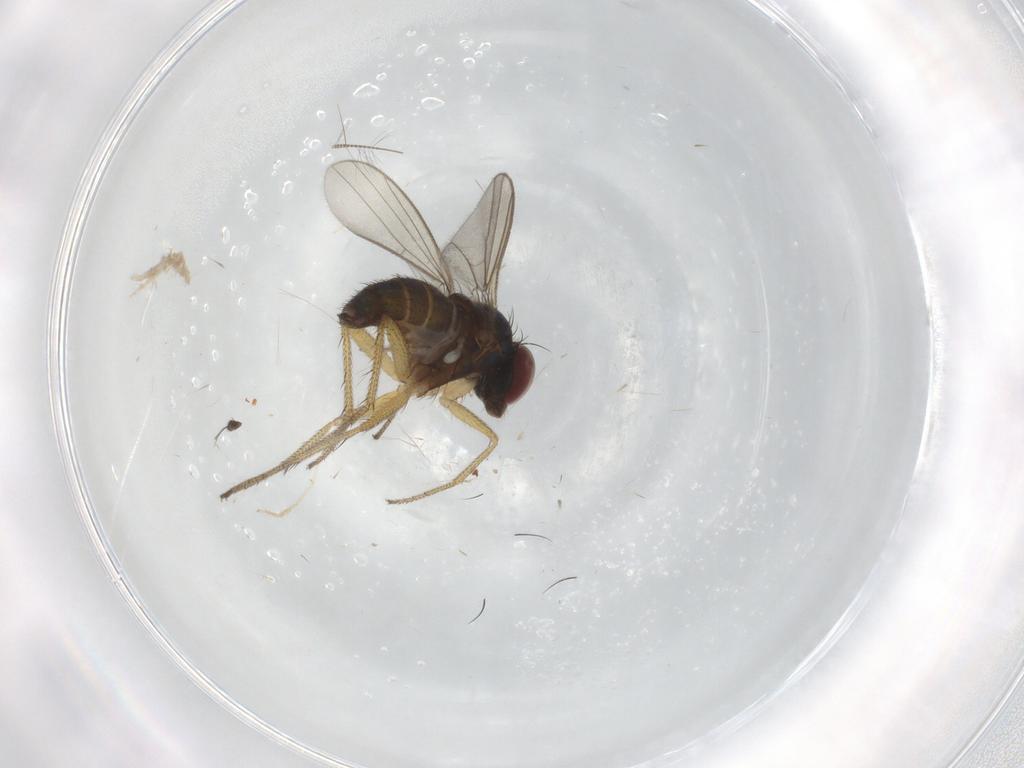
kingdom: Animalia
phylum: Arthropoda
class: Insecta
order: Diptera
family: Dolichopodidae
